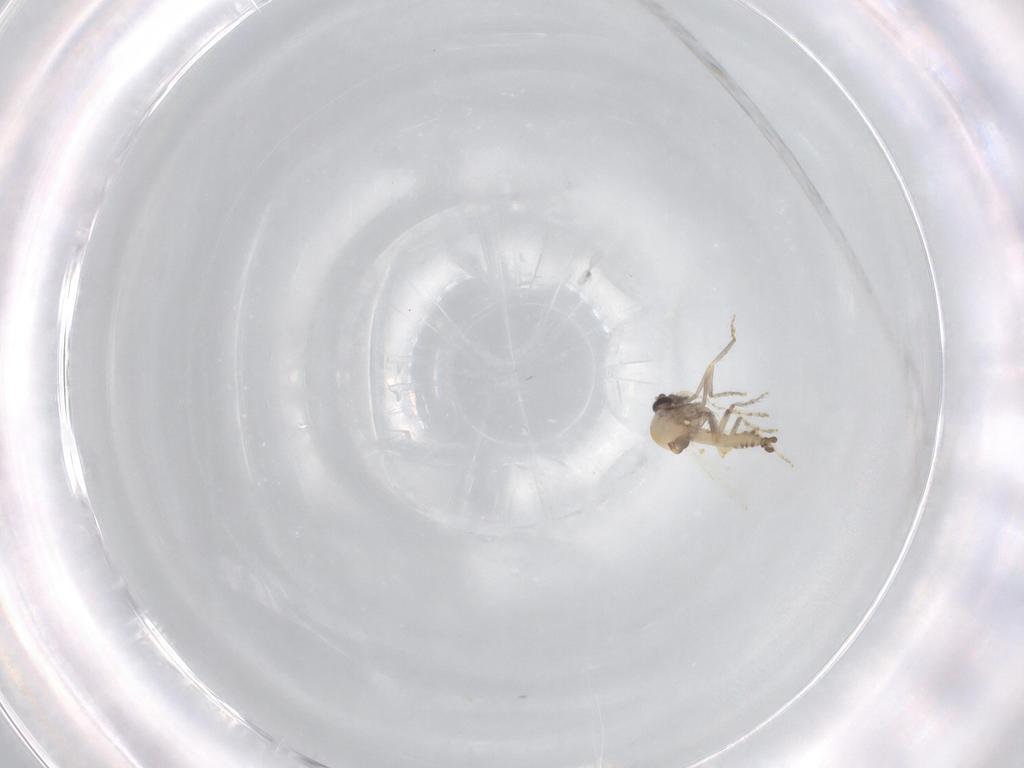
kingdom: Animalia
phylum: Arthropoda
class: Insecta
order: Diptera
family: Ceratopogonidae
